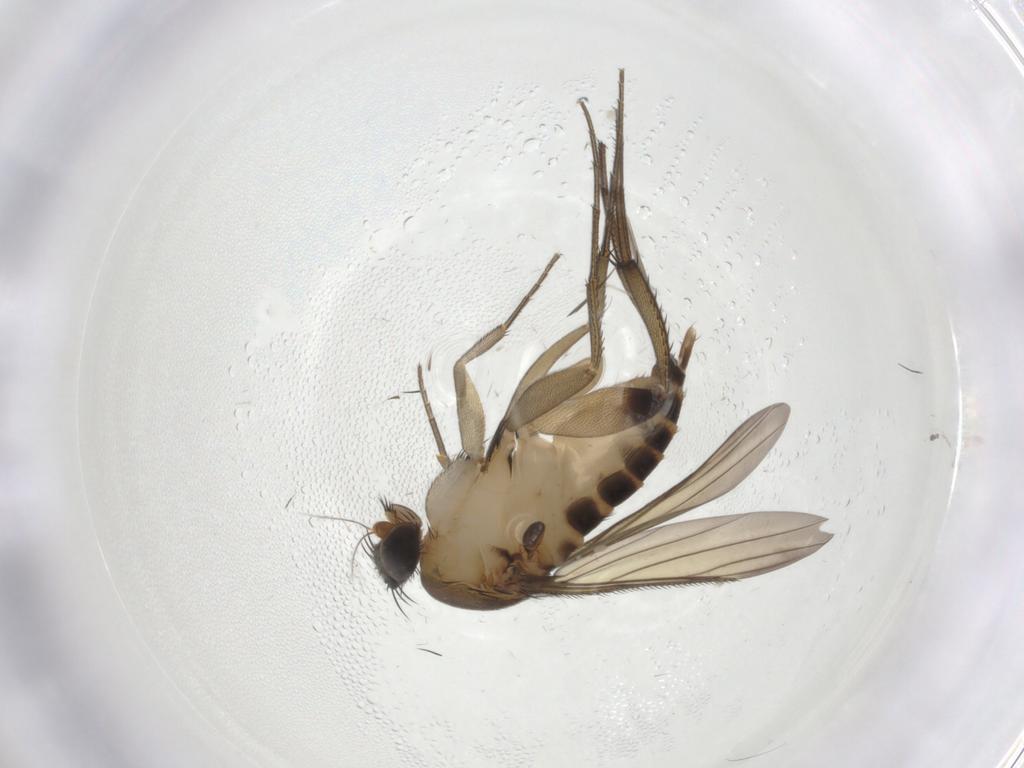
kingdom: Animalia
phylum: Arthropoda
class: Insecta
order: Diptera
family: Phoridae
